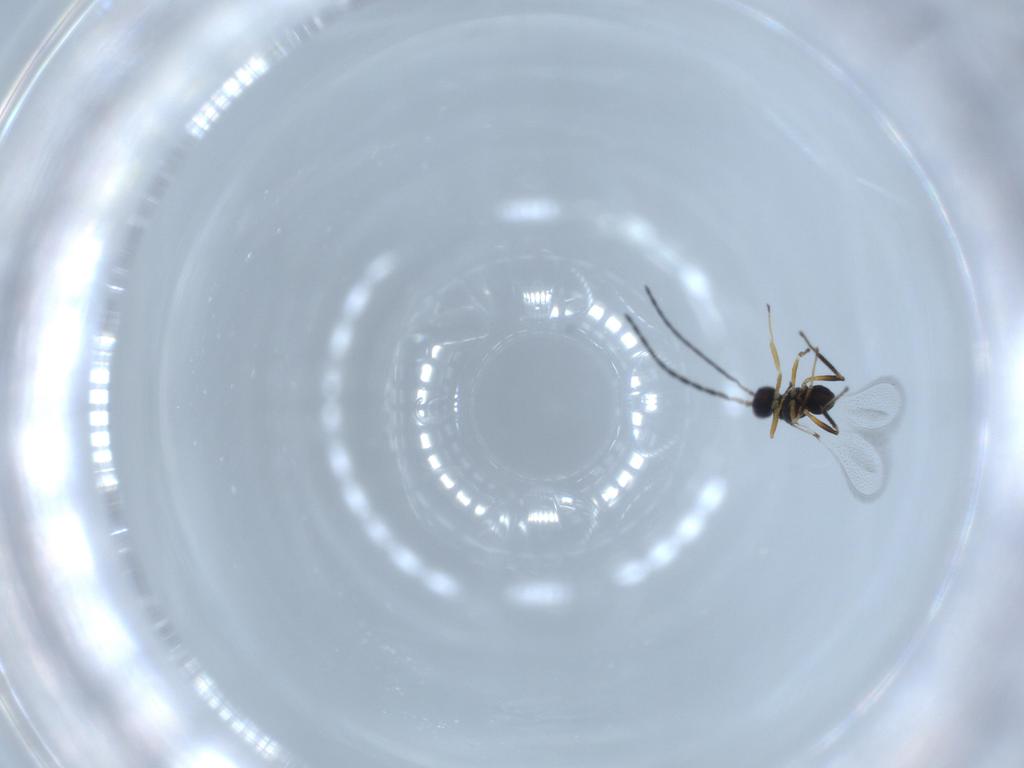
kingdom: Animalia
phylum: Arthropoda
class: Insecta
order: Hymenoptera
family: Mymaridae
